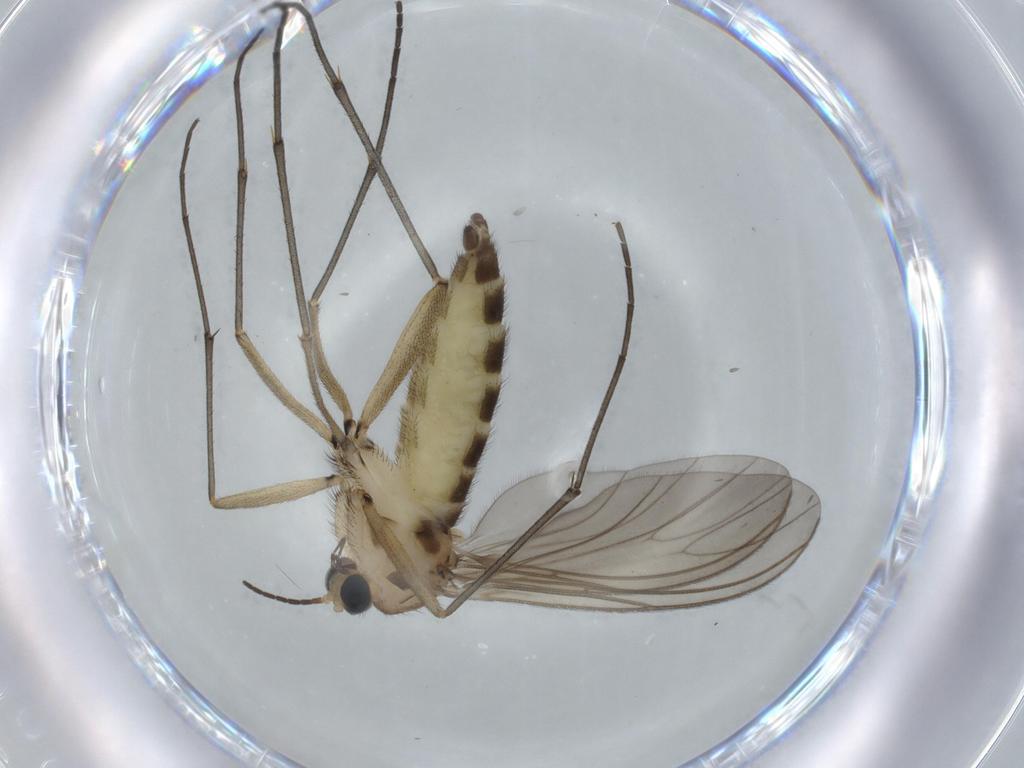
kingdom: Animalia
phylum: Arthropoda
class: Insecta
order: Diptera
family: Sciaridae
